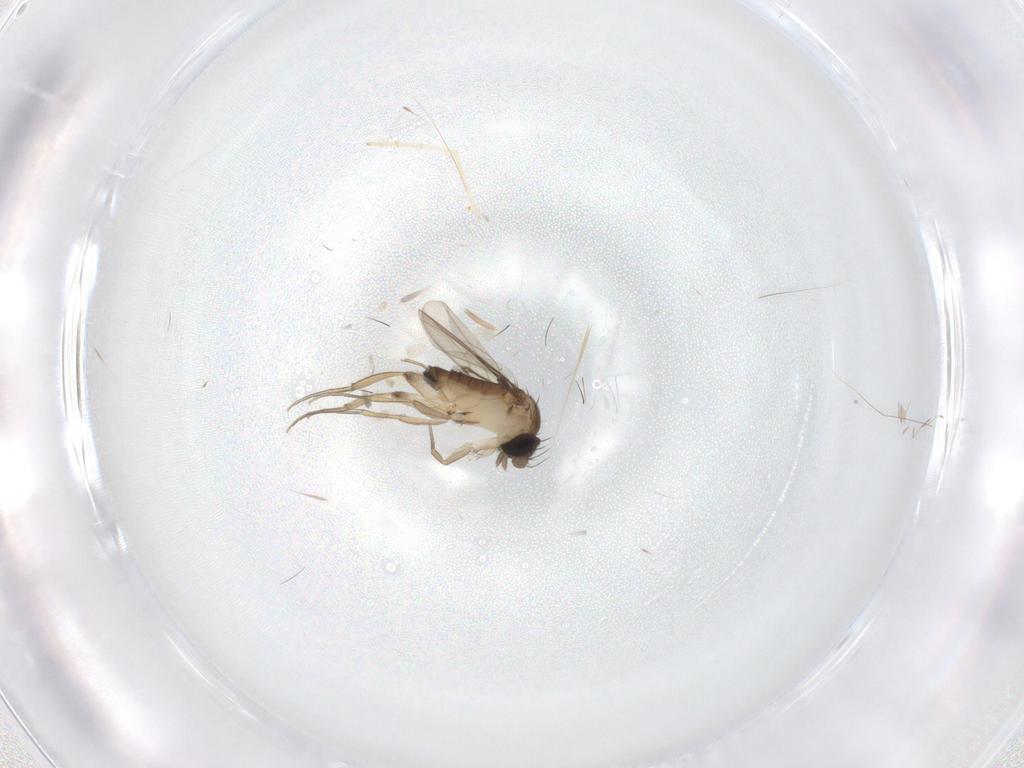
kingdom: Animalia
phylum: Arthropoda
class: Insecta
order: Diptera
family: Phoridae
